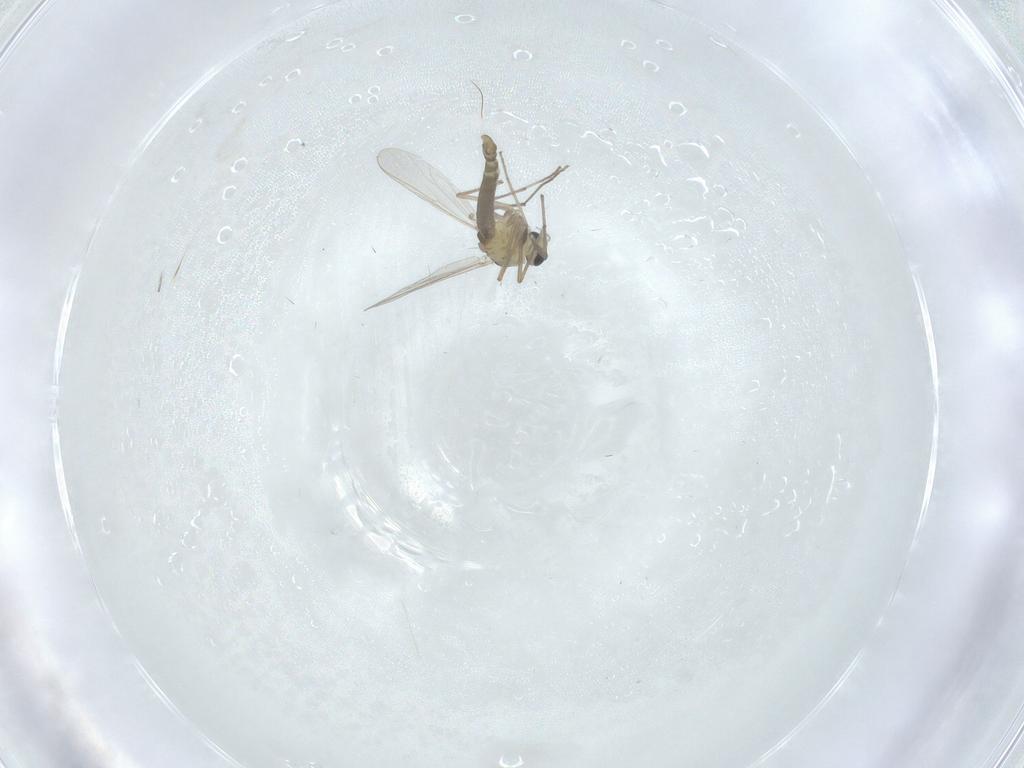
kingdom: Animalia
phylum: Arthropoda
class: Insecta
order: Diptera
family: Chironomidae
